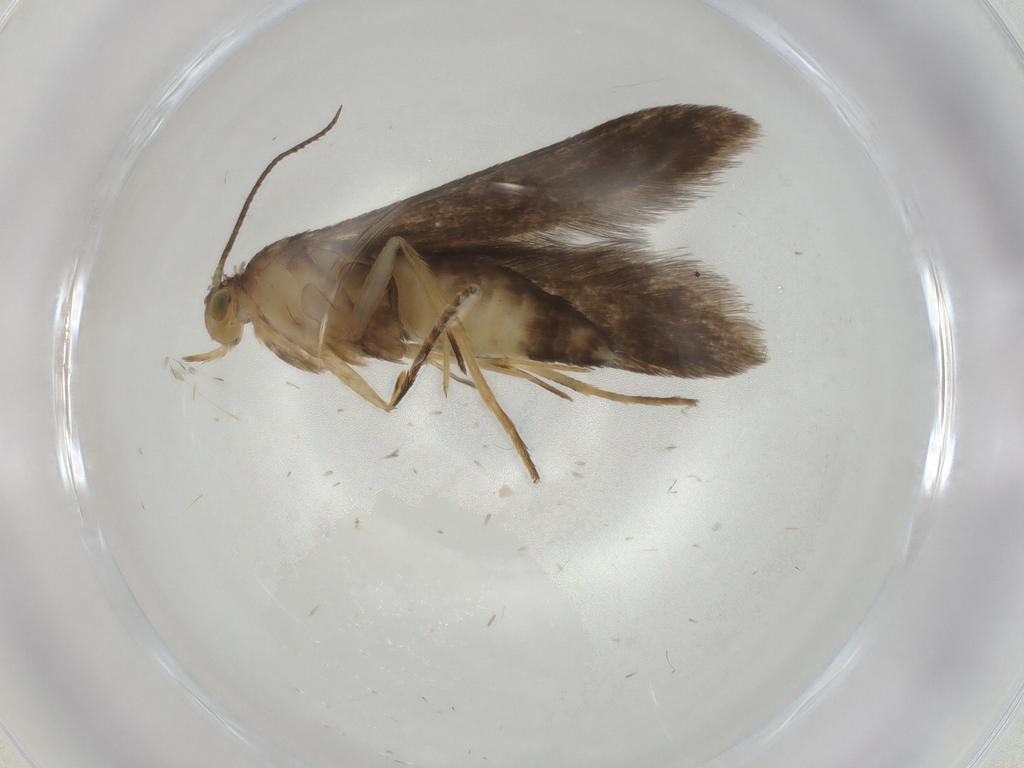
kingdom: Animalia
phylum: Arthropoda
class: Insecta
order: Lepidoptera
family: Oecophoridae
